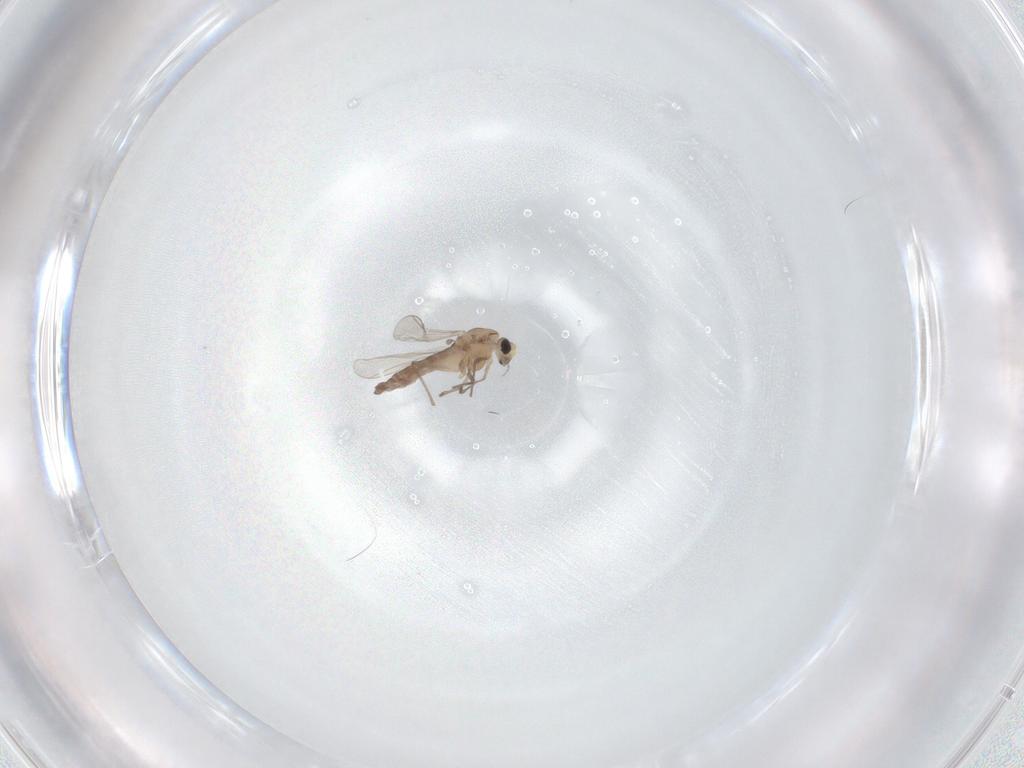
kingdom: Animalia
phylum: Arthropoda
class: Insecta
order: Diptera
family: Chironomidae
